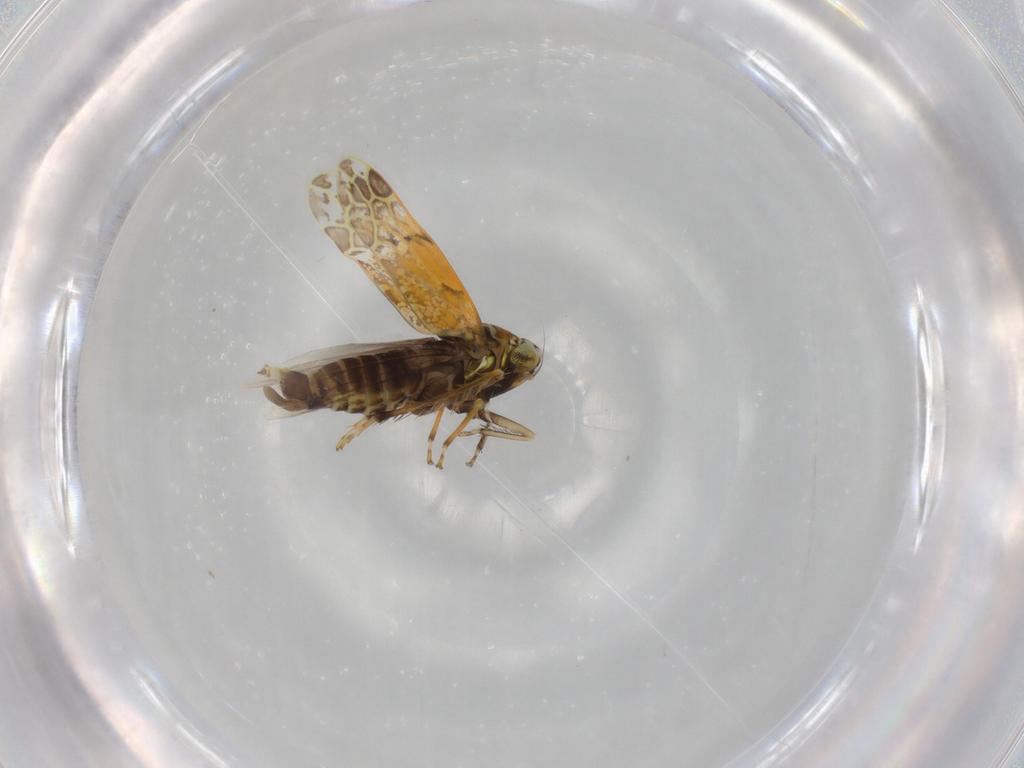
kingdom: Animalia
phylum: Arthropoda
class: Insecta
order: Hemiptera
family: Cicadellidae
